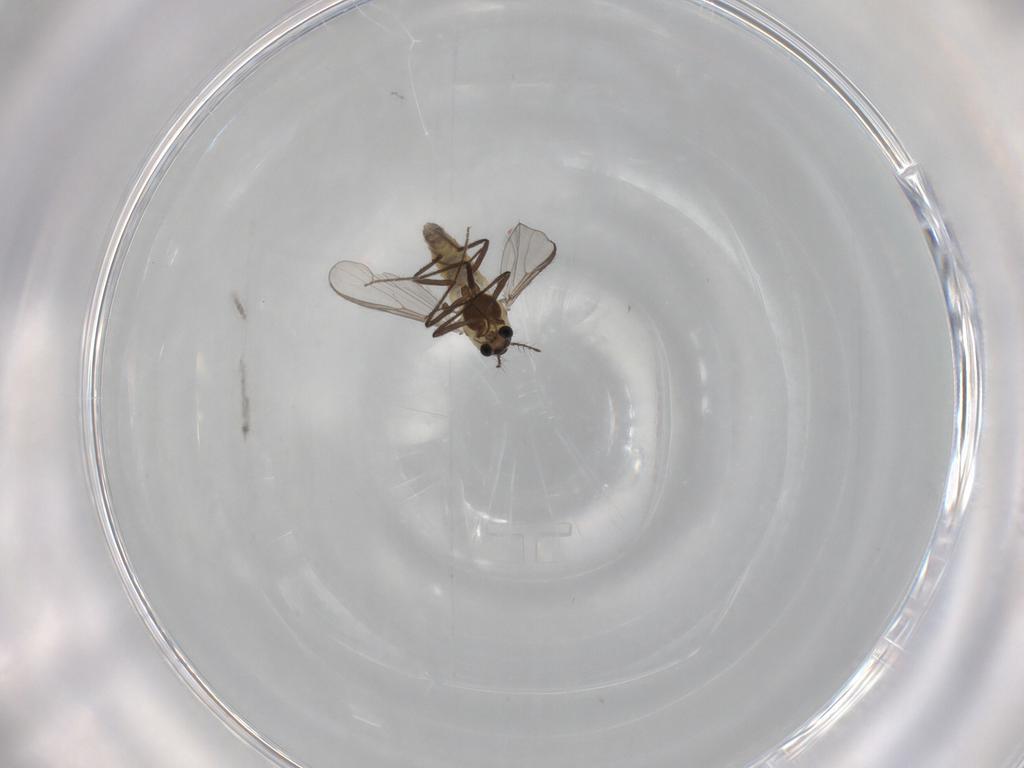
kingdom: Animalia
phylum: Arthropoda
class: Insecta
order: Diptera
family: Chironomidae
